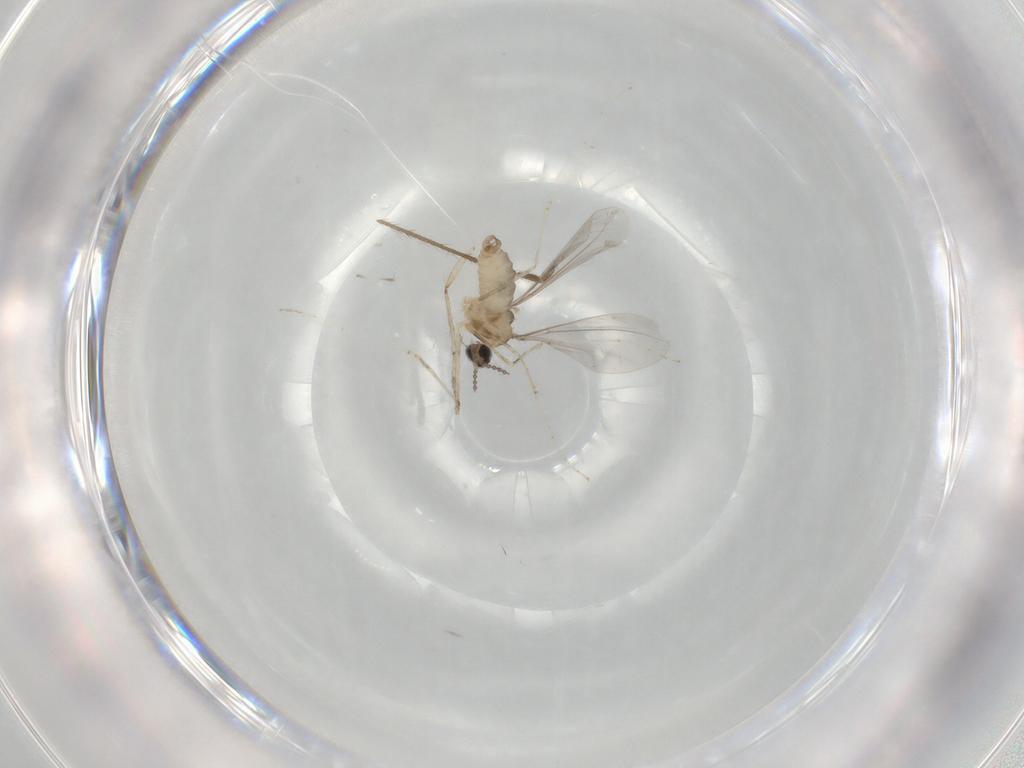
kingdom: Animalia
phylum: Arthropoda
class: Insecta
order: Diptera
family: Cecidomyiidae
